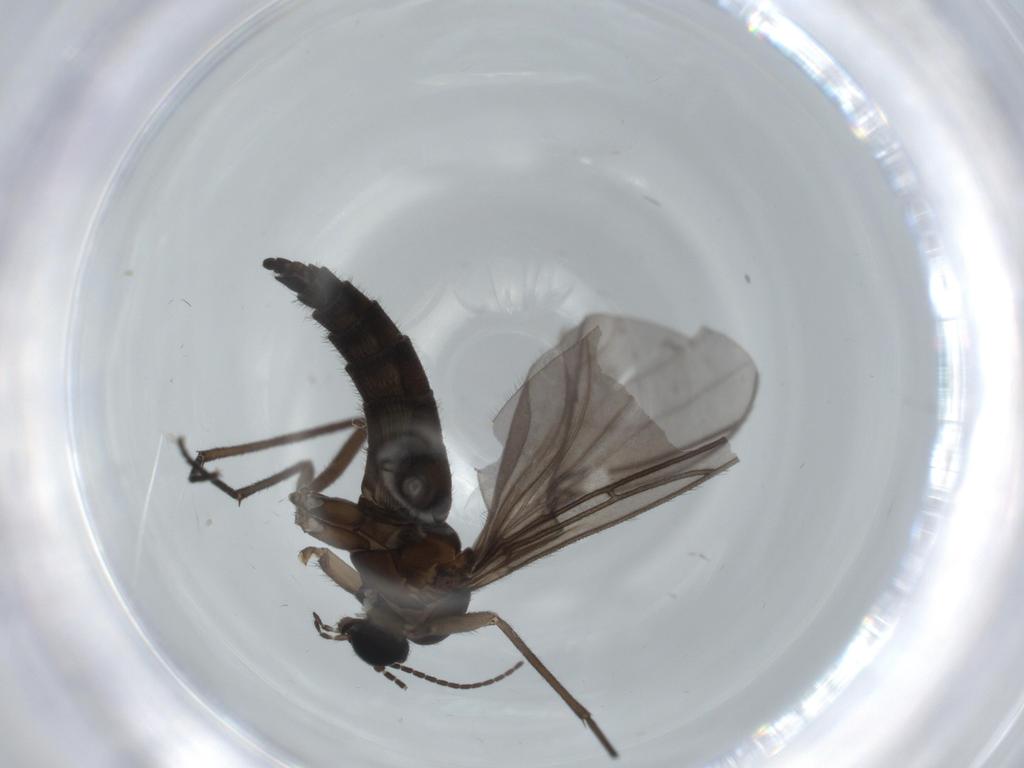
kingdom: Animalia
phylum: Arthropoda
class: Insecta
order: Diptera
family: Sciaridae
